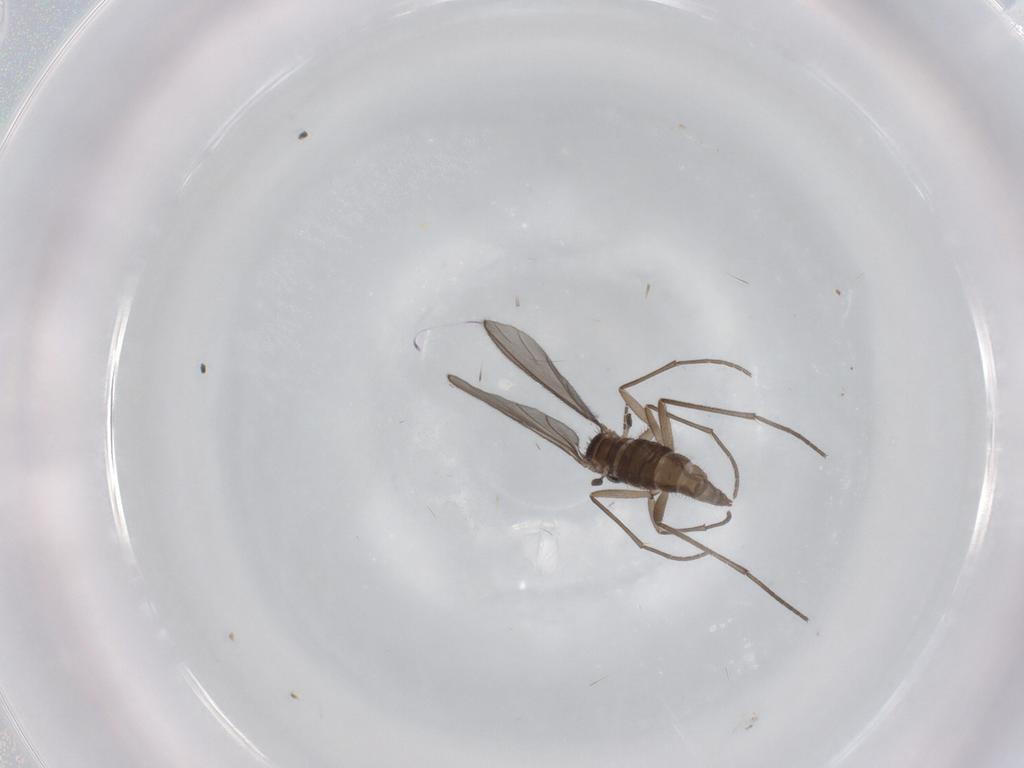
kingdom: Animalia
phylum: Arthropoda
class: Insecta
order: Diptera
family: Sciaridae
